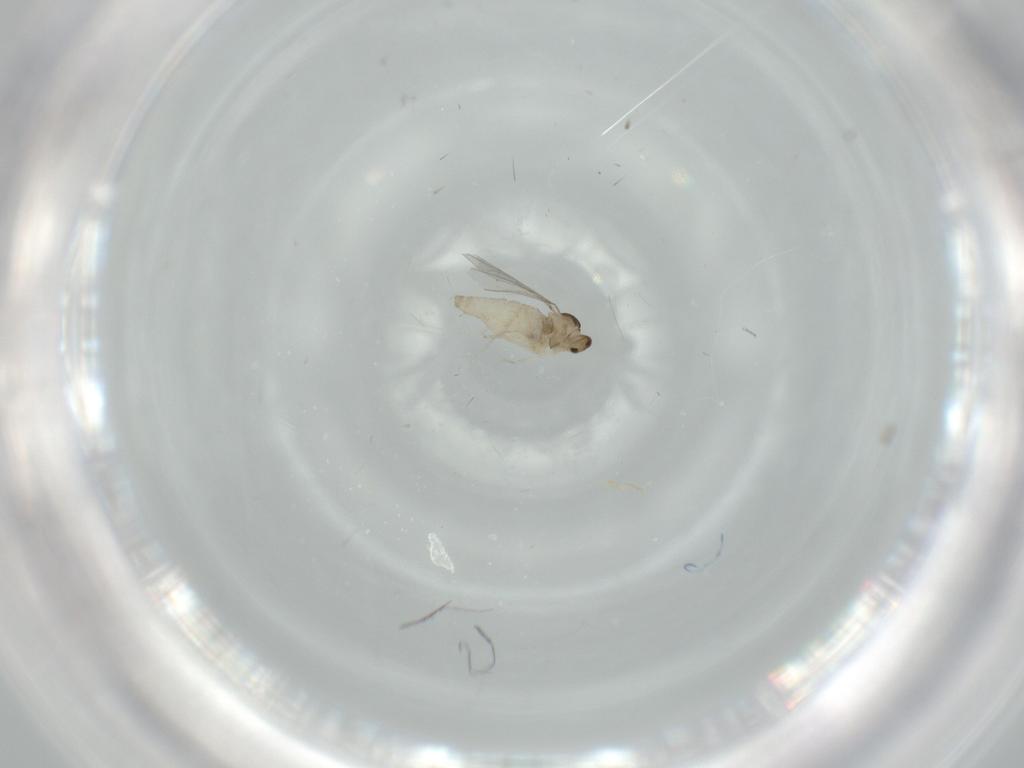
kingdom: Animalia
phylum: Arthropoda
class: Insecta
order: Diptera
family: Cecidomyiidae
